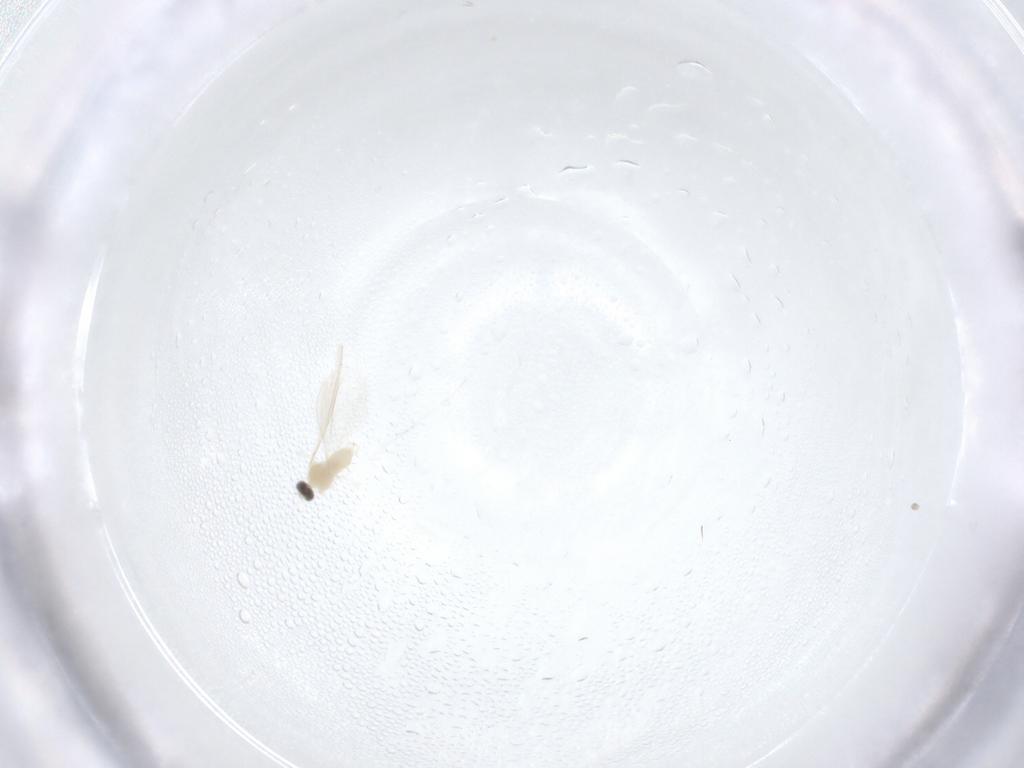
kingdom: Animalia
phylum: Arthropoda
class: Insecta
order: Diptera
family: Cecidomyiidae
